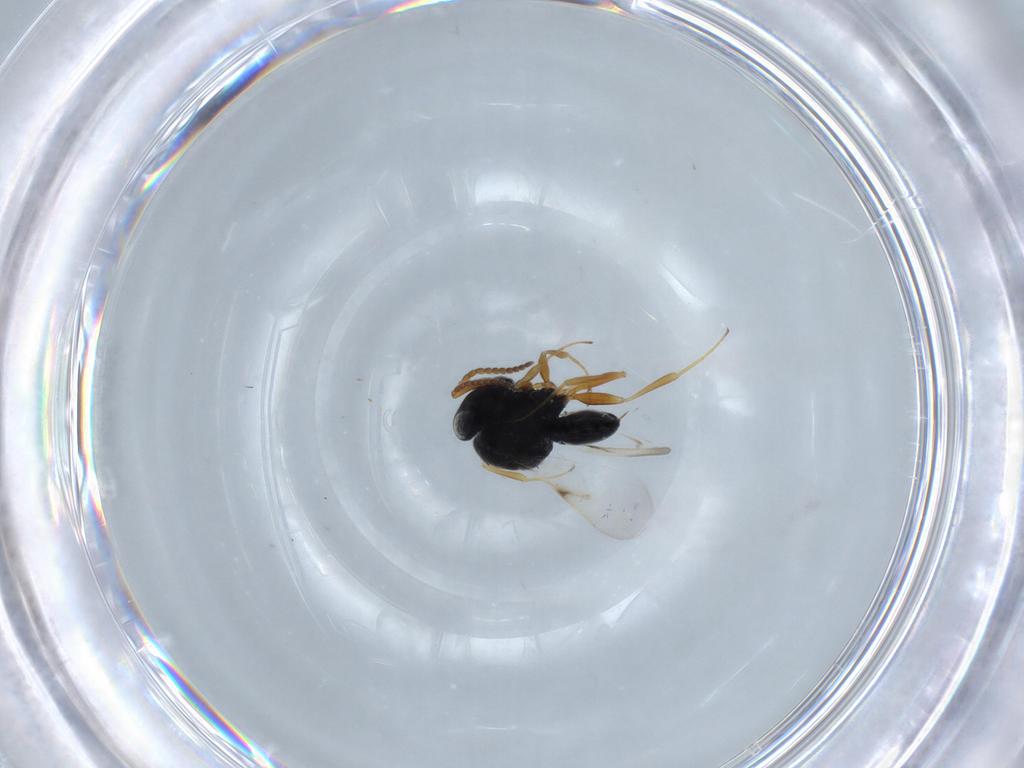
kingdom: Animalia
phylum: Arthropoda
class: Insecta
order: Hymenoptera
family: Scelionidae
